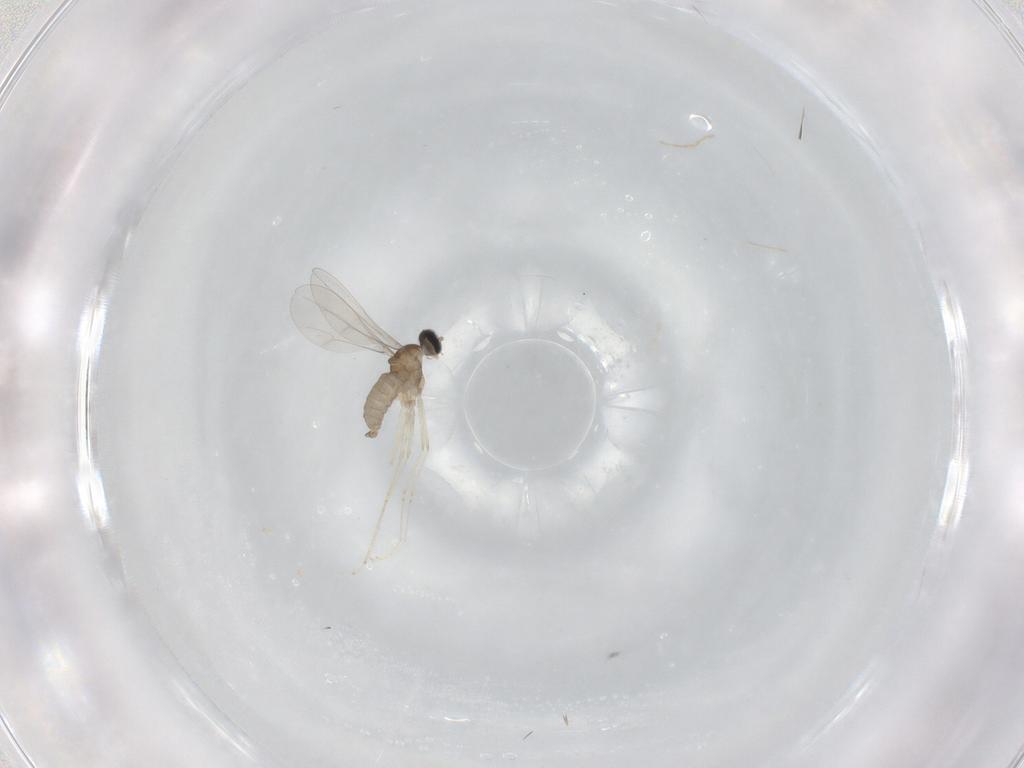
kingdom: Animalia
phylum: Arthropoda
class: Insecta
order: Diptera
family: Syrphidae
